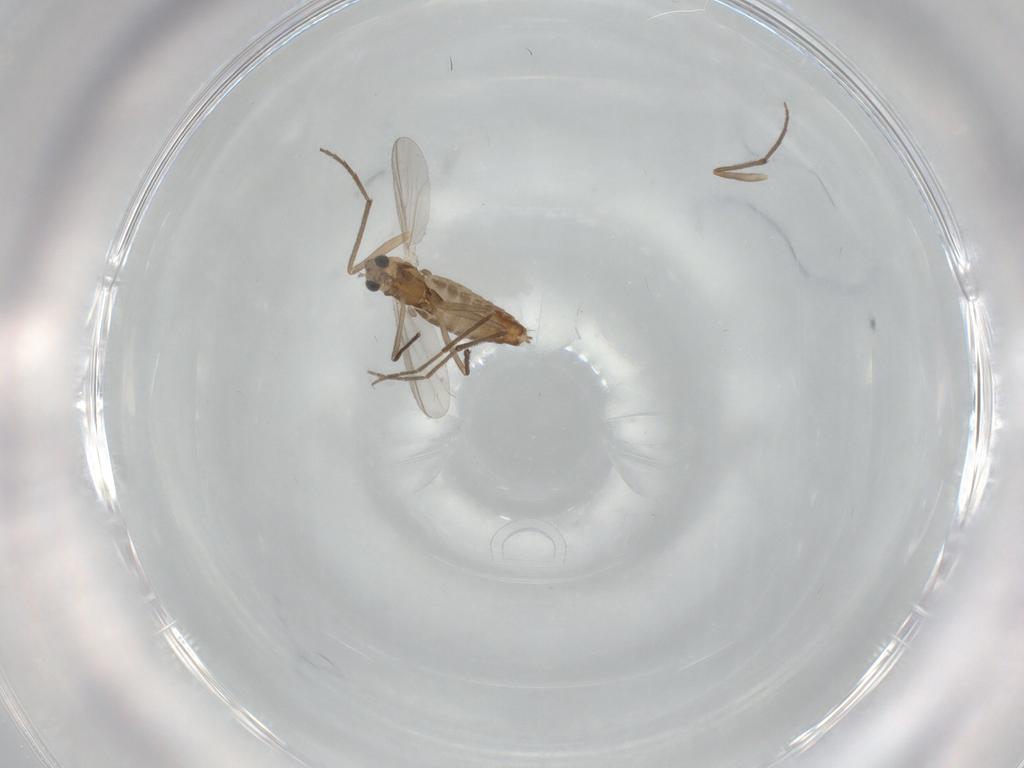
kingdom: Animalia
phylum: Arthropoda
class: Insecta
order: Diptera
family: Chironomidae
